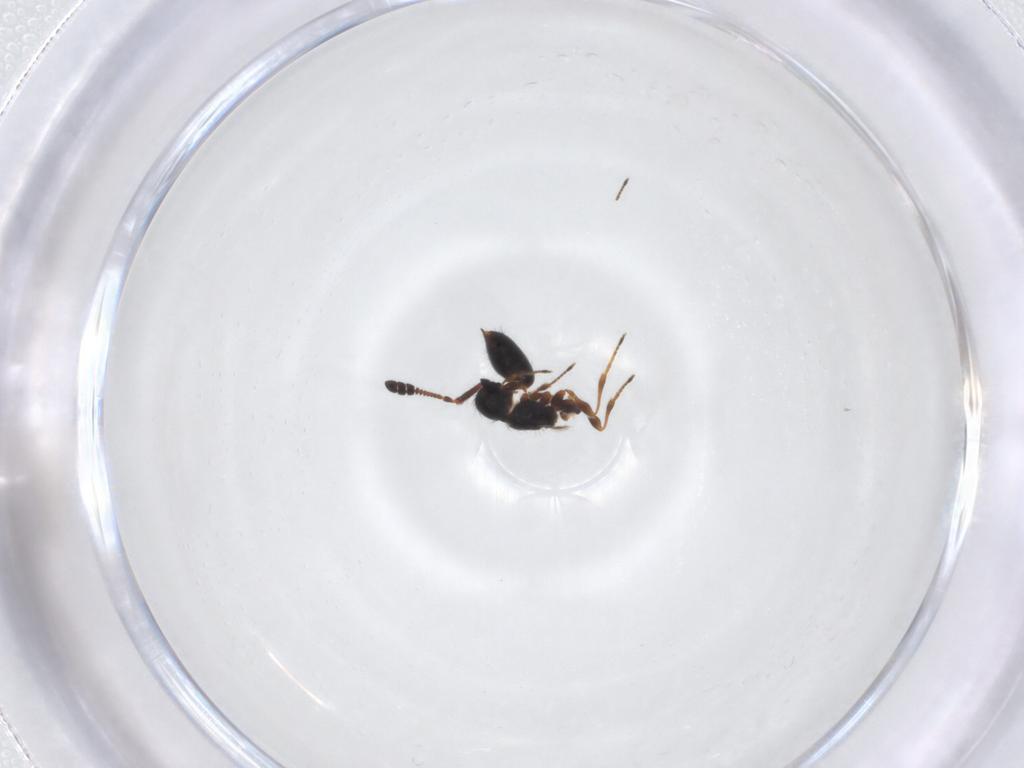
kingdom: Animalia
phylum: Arthropoda
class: Insecta
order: Hymenoptera
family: Diapriidae
